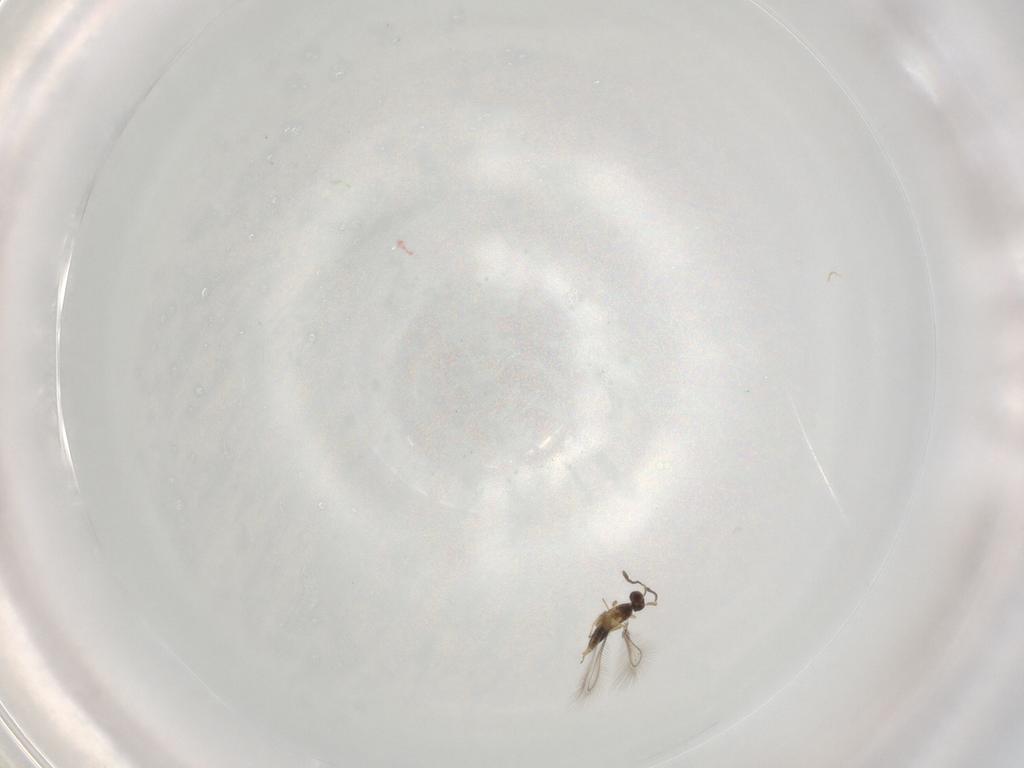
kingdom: Animalia
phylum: Arthropoda
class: Insecta
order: Hymenoptera
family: Mymaridae
